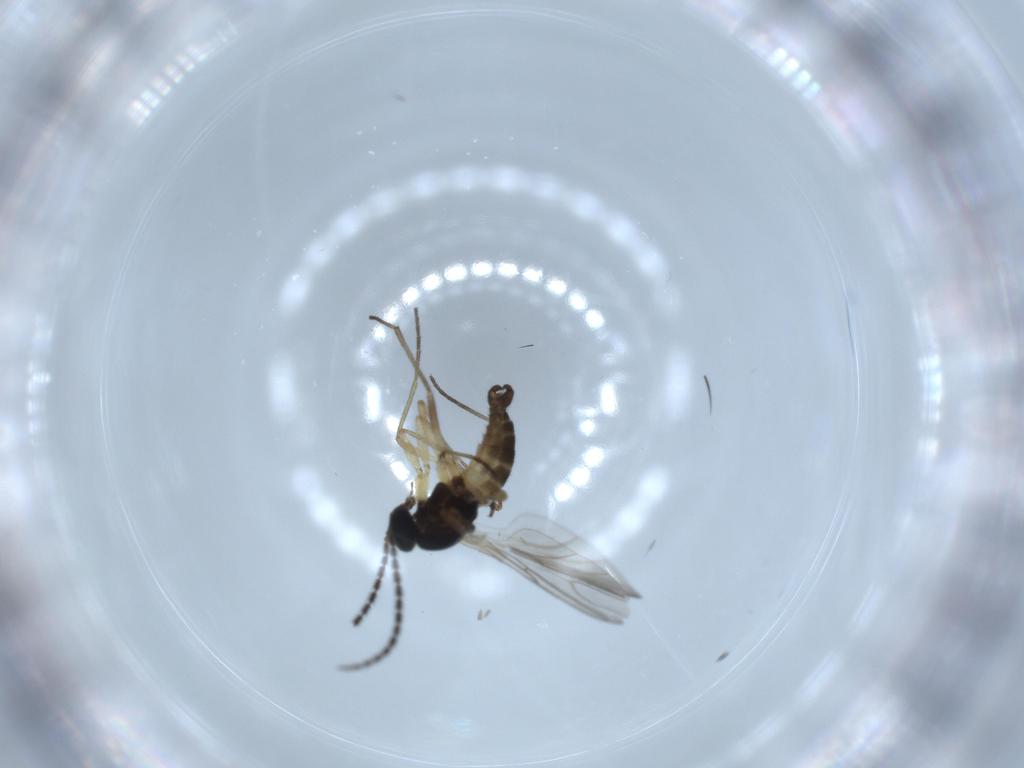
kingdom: Animalia
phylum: Arthropoda
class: Insecta
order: Diptera
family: Sciaridae
